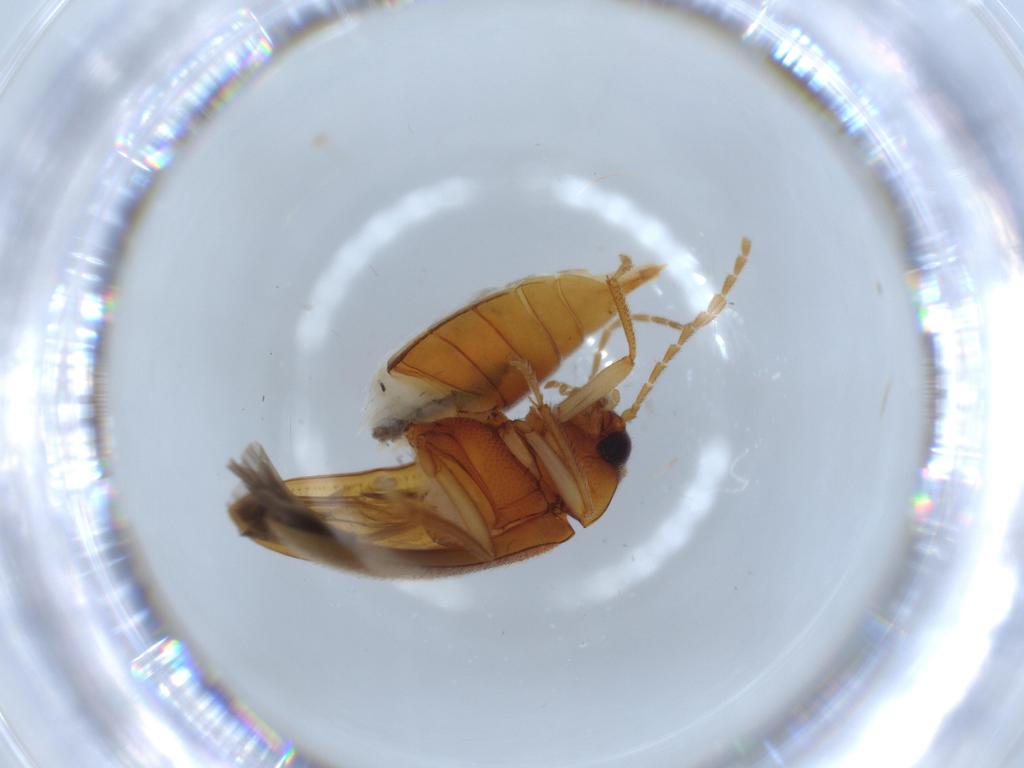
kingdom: Animalia
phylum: Arthropoda
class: Insecta
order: Coleoptera
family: Ptilodactylidae
